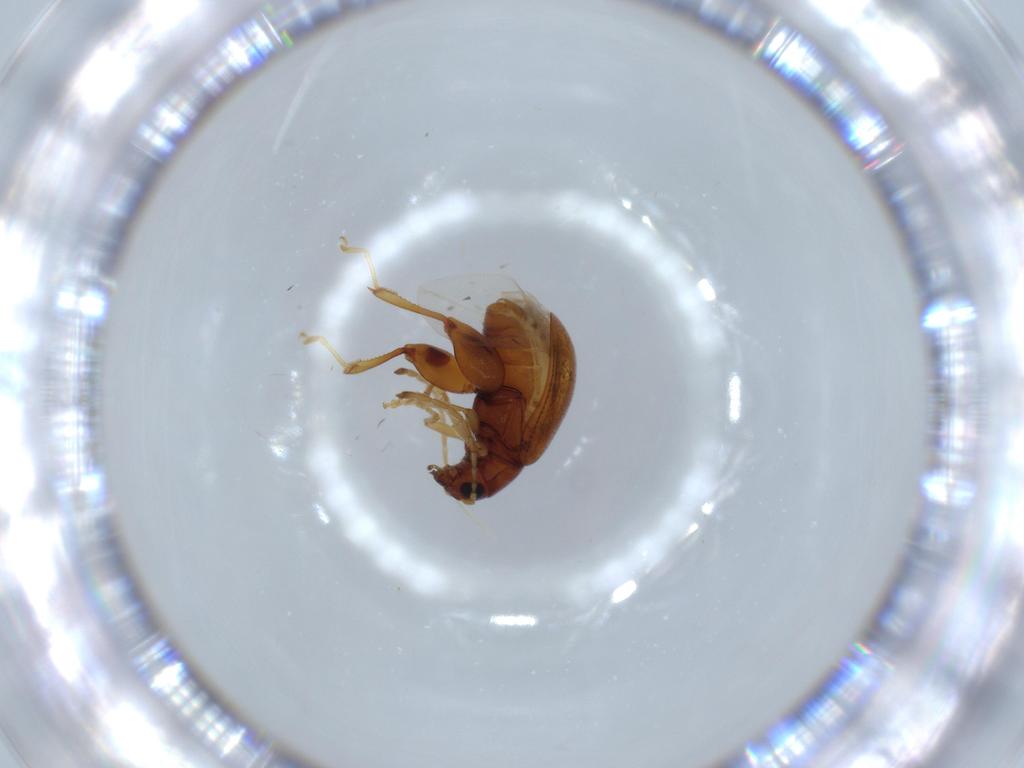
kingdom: Animalia
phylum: Arthropoda
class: Insecta
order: Coleoptera
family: Chrysomelidae
